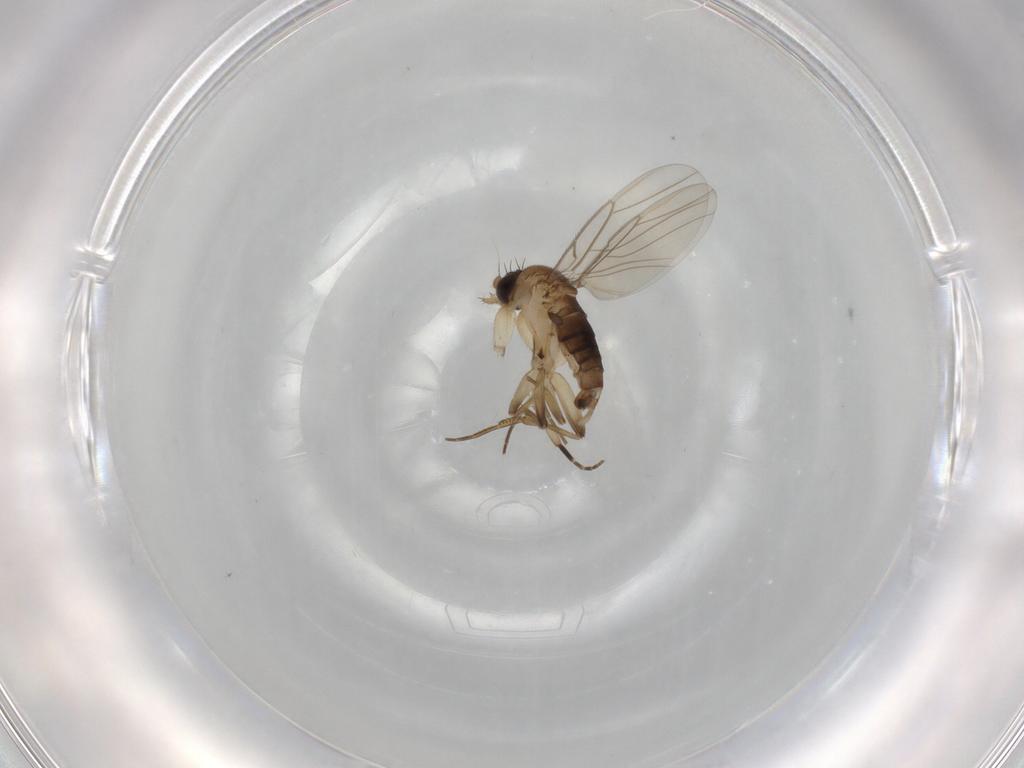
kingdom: Animalia
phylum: Arthropoda
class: Insecta
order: Diptera
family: Phoridae
